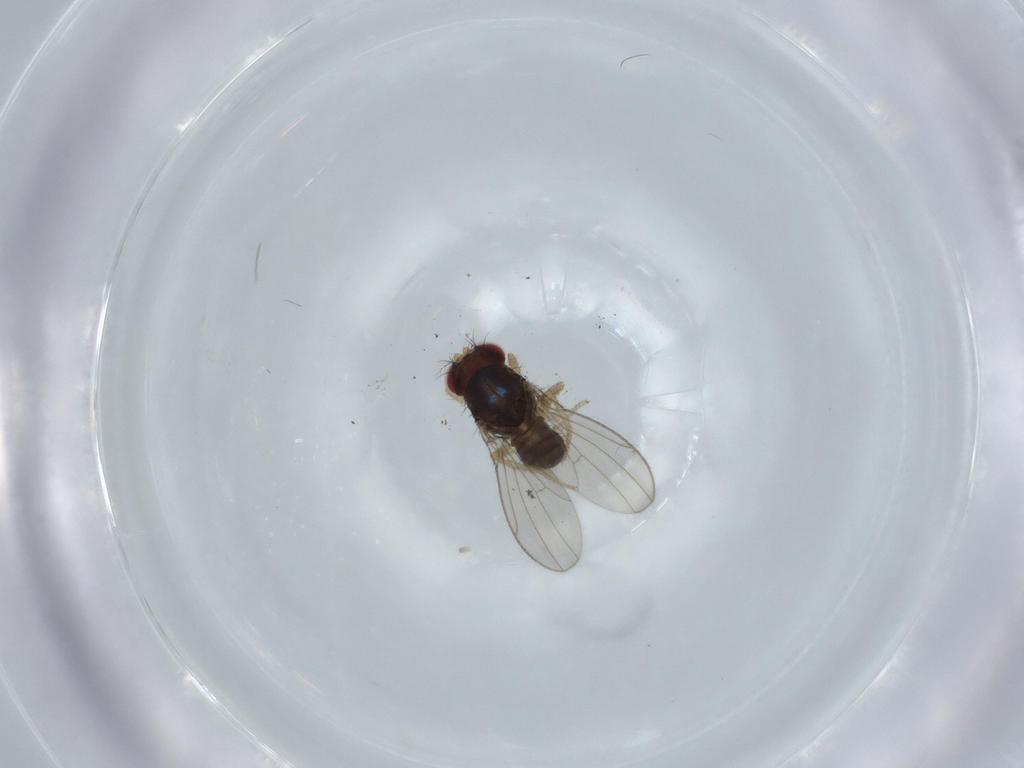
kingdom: Animalia
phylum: Arthropoda
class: Insecta
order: Diptera
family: Drosophilidae
